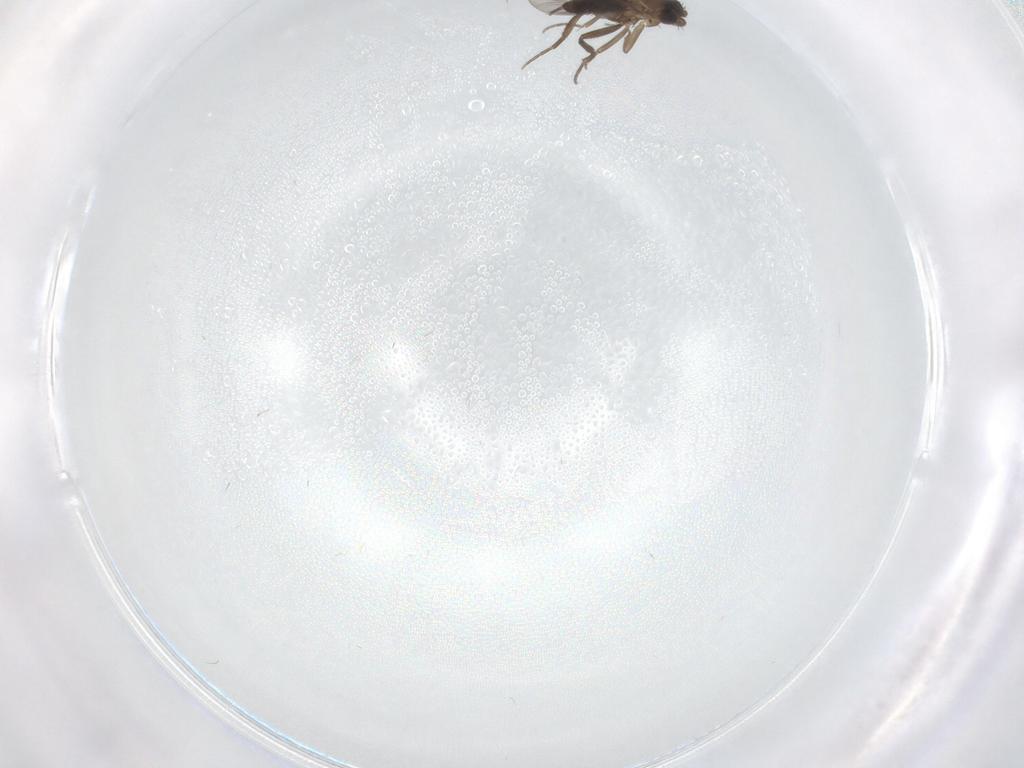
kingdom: Animalia
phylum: Arthropoda
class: Insecta
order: Diptera
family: Phoridae
